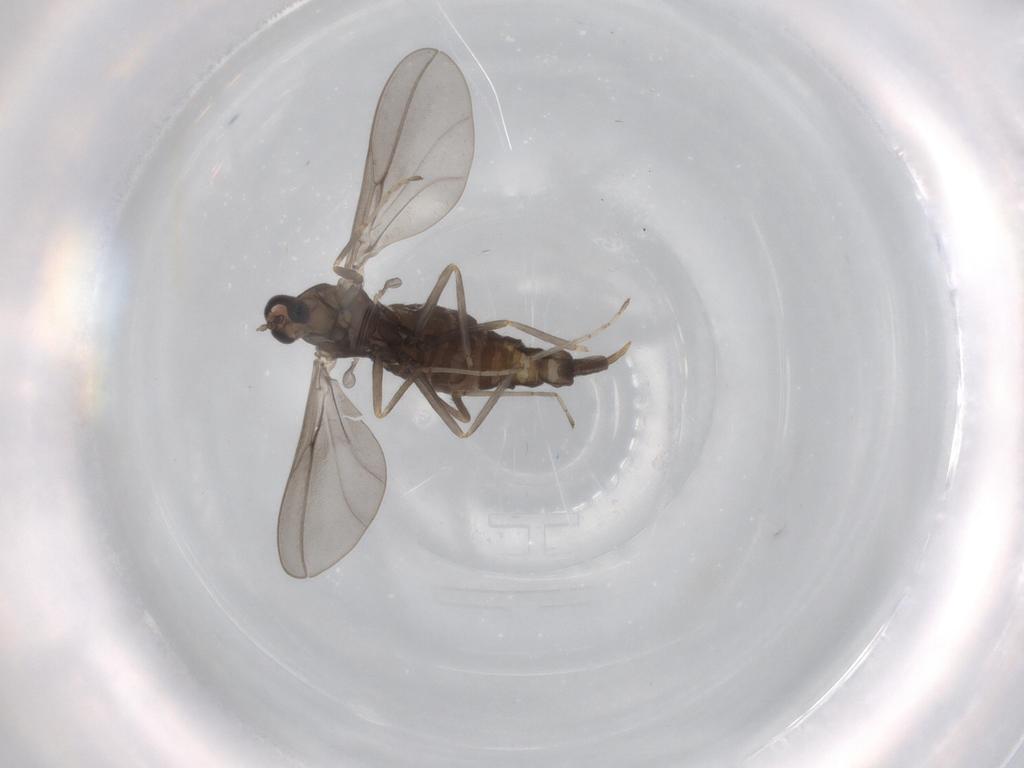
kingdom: Animalia
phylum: Arthropoda
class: Insecta
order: Diptera
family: Cecidomyiidae
